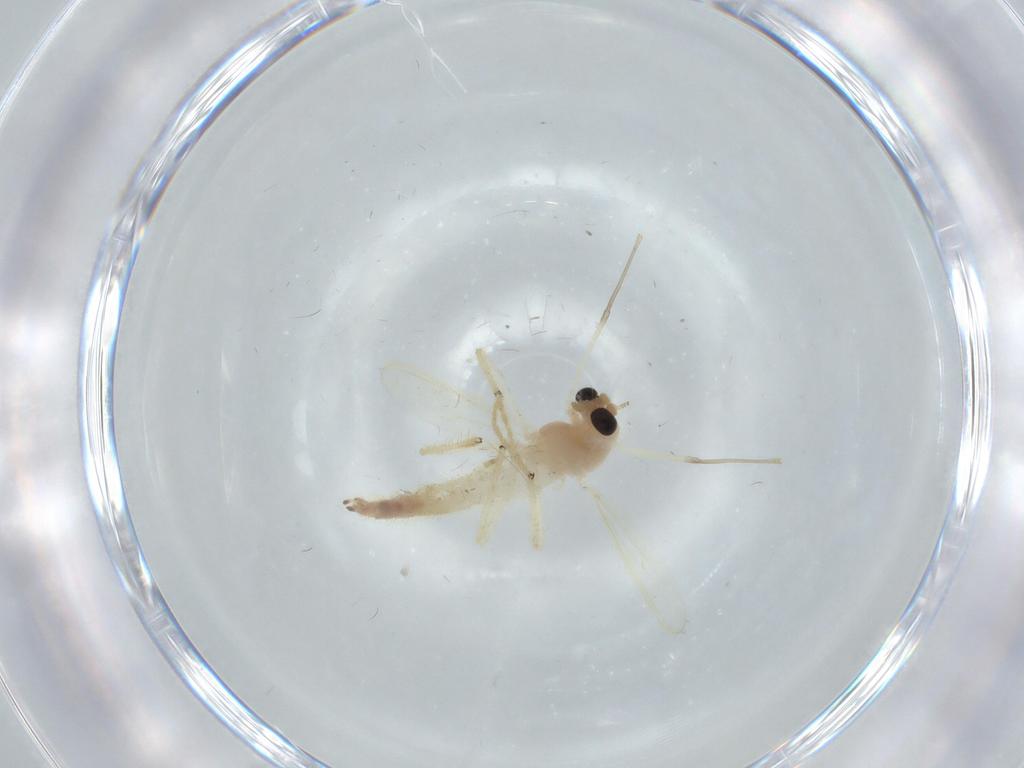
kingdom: Animalia
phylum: Arthropoda
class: Insecta
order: Diptera
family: Chironomidae
